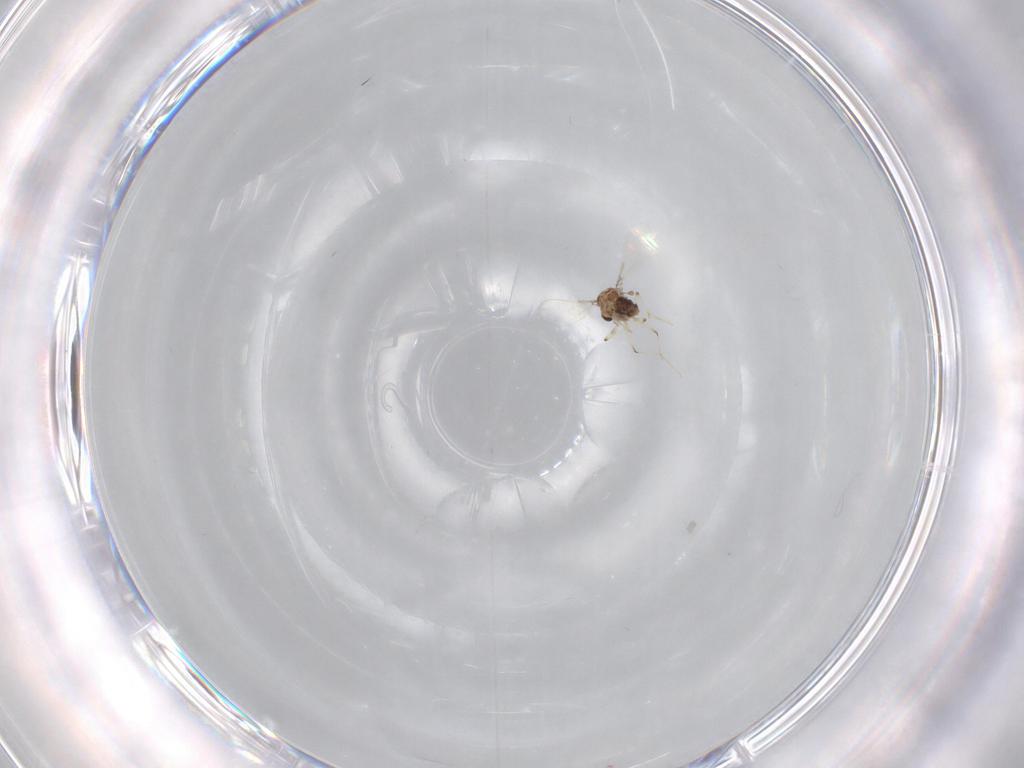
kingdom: Animalia
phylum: Arthropoda
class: Insecta
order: Diptera
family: Chironomidae
